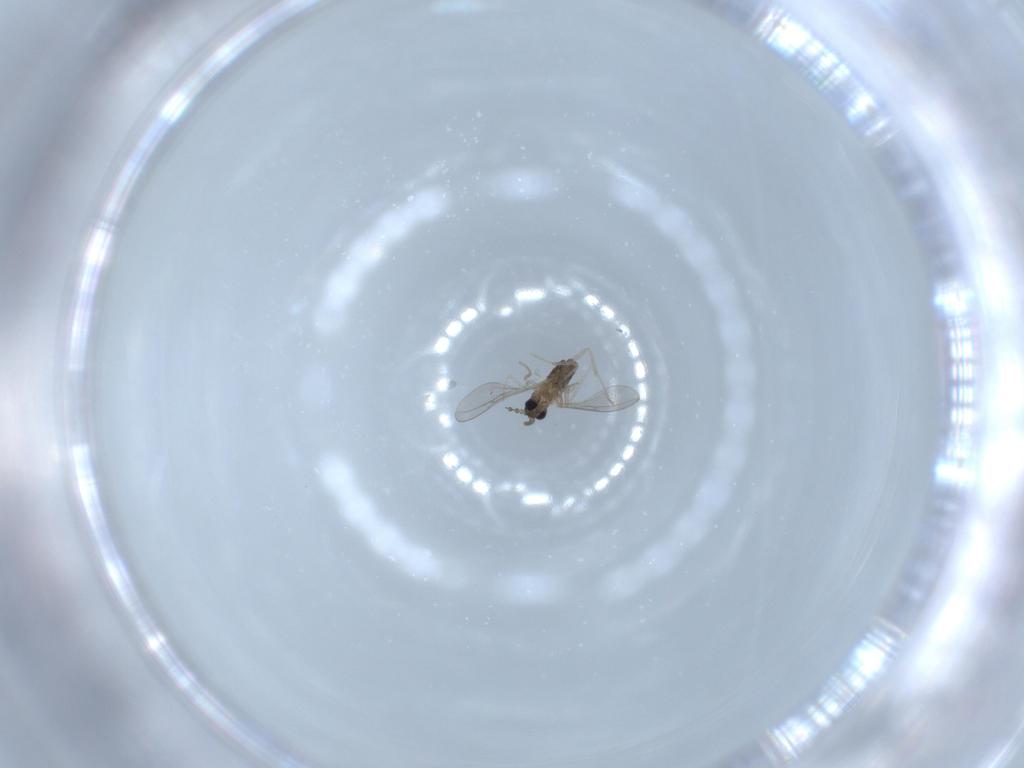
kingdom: Animalia
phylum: Arthropoda
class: Insecta
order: Diptera
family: Cecidomyiidae
